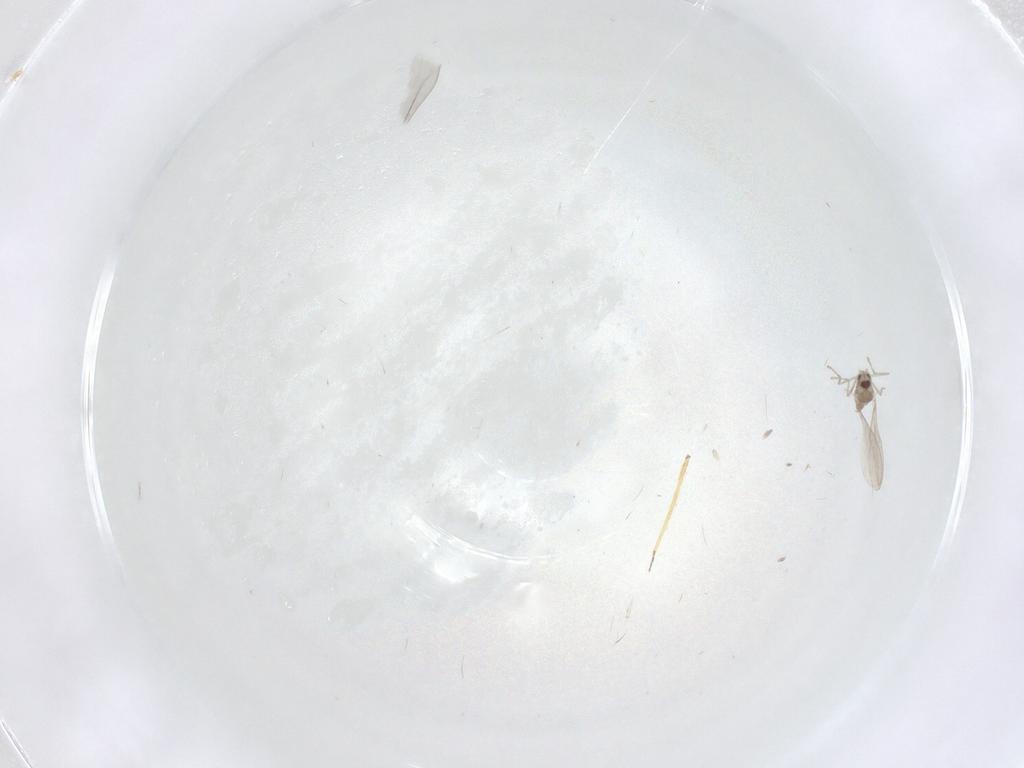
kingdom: Animalia
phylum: Arthropoda
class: Insecta
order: Diptera
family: Cecidomyiidae
